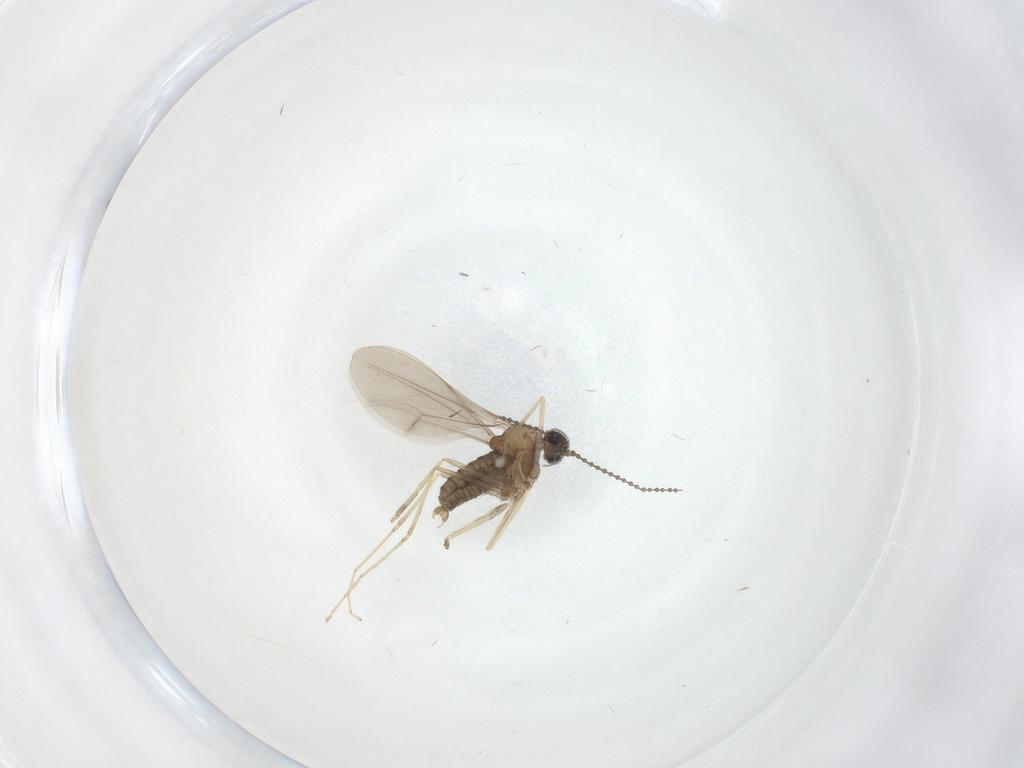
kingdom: Animalia
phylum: Arthropoda
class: Insecta
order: Diptera
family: Cecidomyiidae
